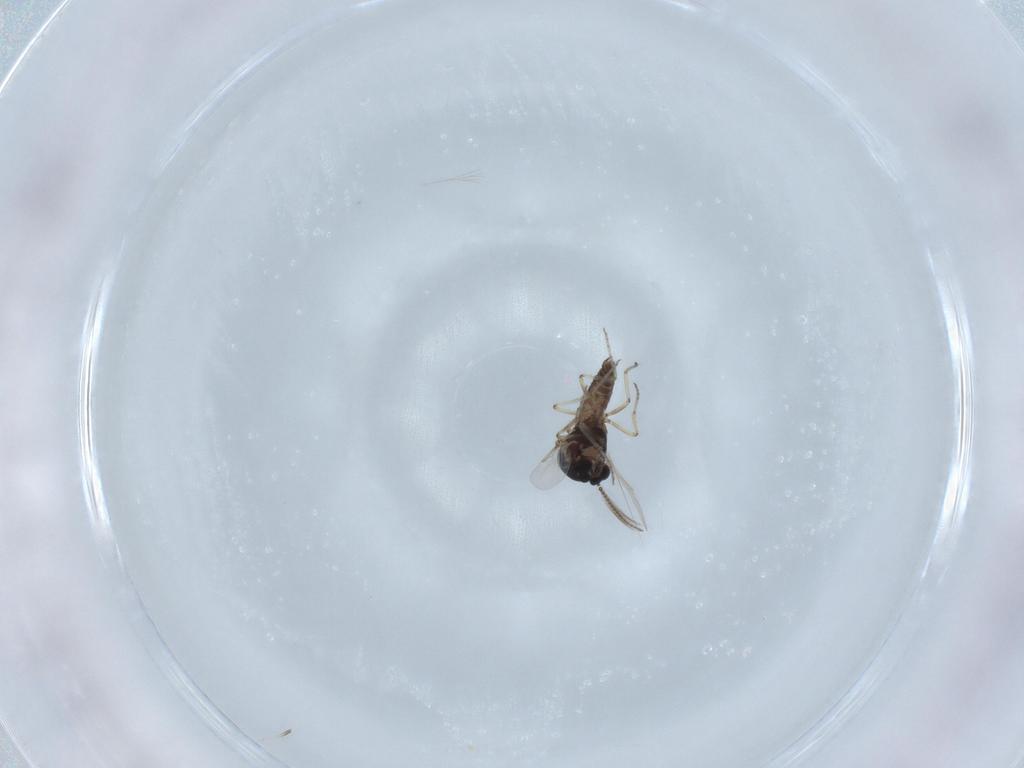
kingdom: Animalia
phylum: Arthropoda
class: Insecta
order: Diptera
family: Ceratopogonidae
